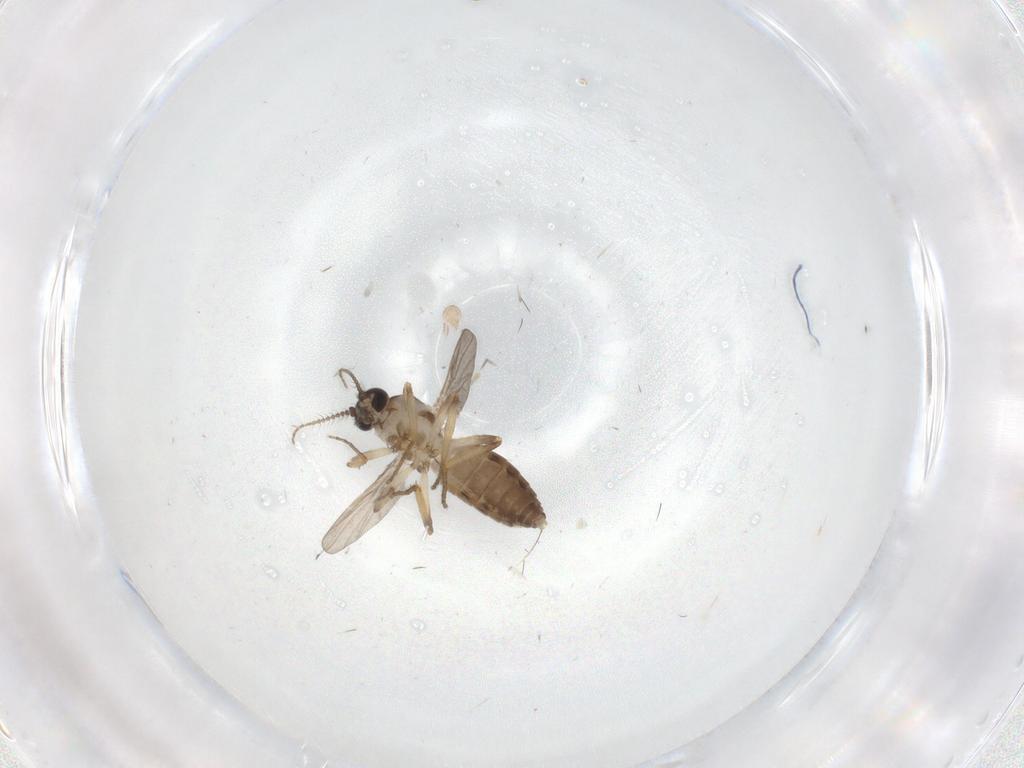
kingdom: Animalia
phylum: Arthropoda
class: Insecta
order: Diptera
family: Ceratopogonidae
